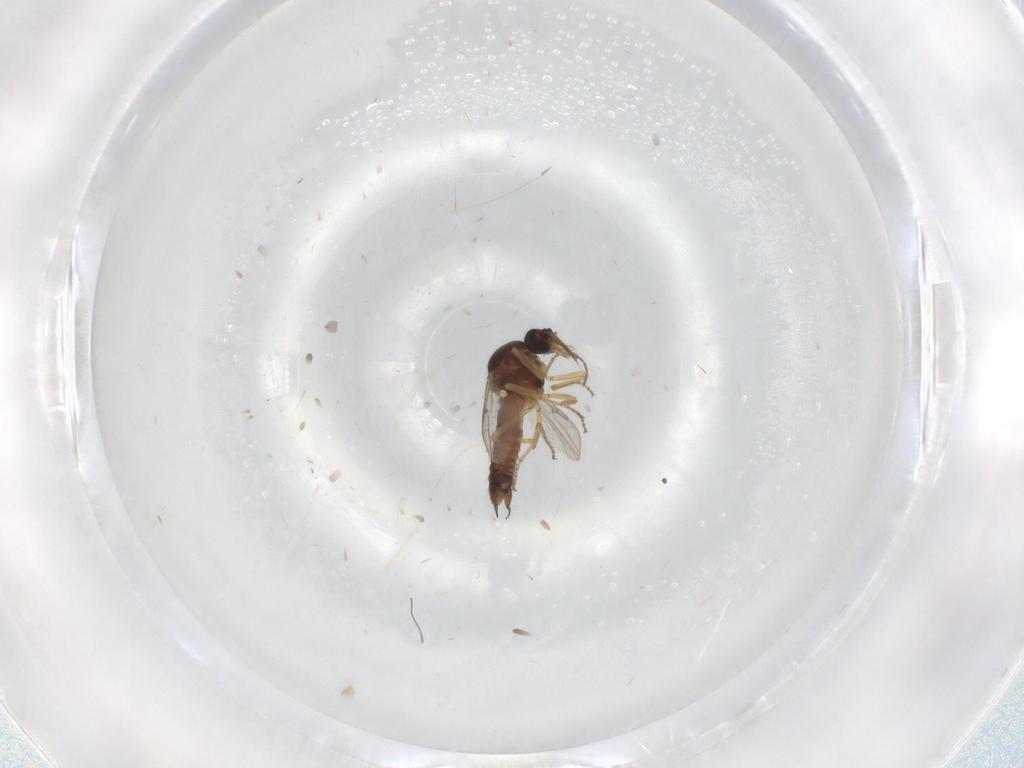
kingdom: Animalia
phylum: Arthropoda
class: Insecta
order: Diptera
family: Ceratopogonidae
